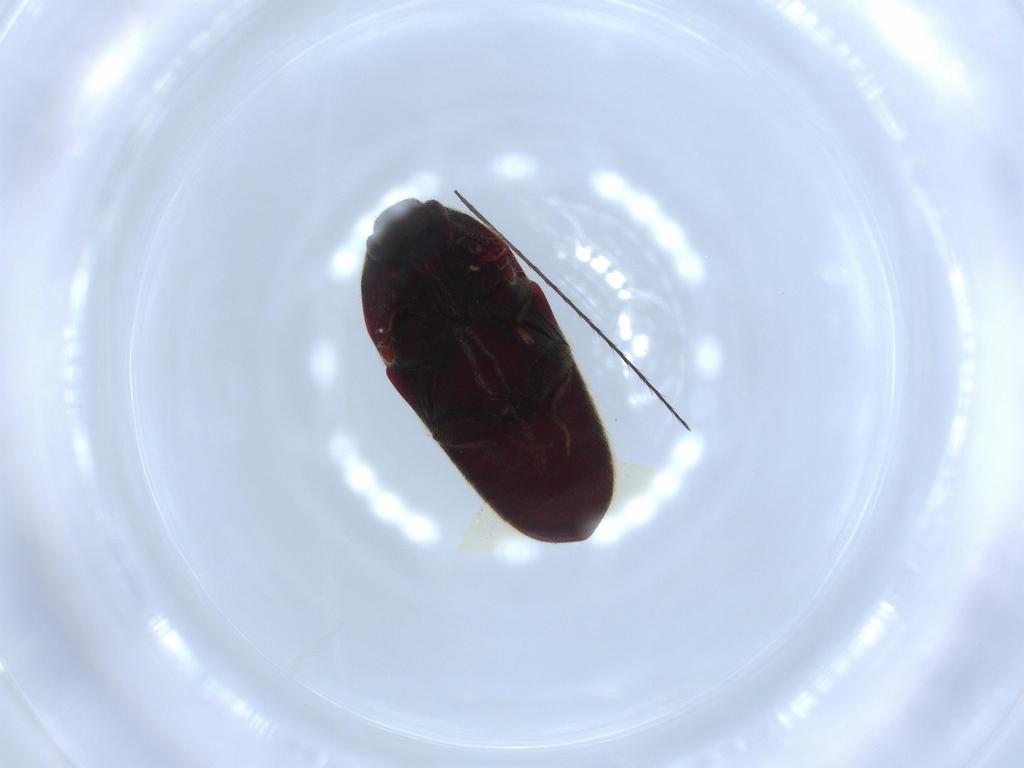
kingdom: Animalia
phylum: Arthropoda
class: Insecta
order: Coleoptera
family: Throscidae
